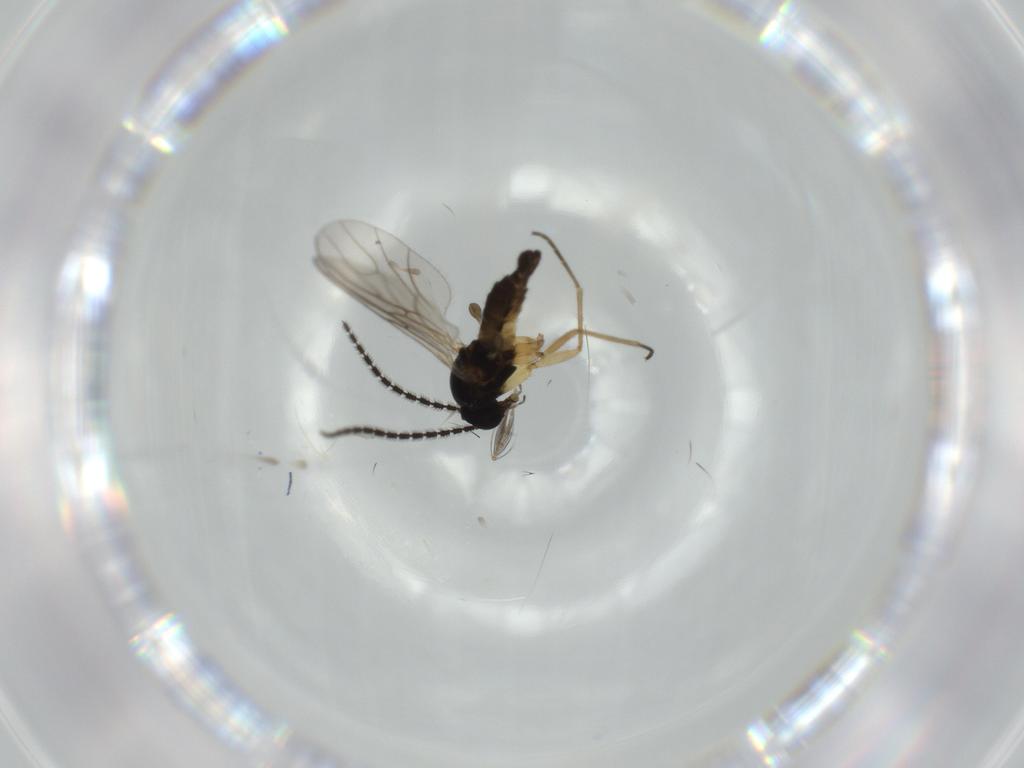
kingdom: Animalia
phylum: Arthropoda
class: Insecta
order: Diptera
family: Sciaridae
